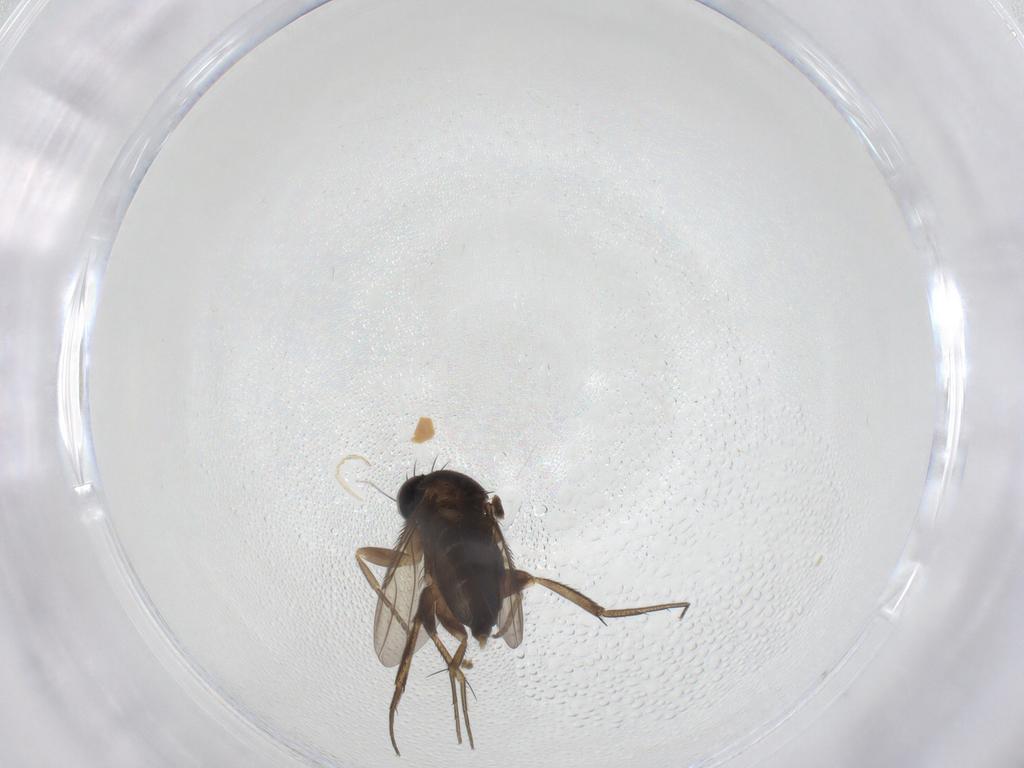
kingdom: Animalia
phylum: Arthropoda
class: Insecta
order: Diptera
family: Phoridae
